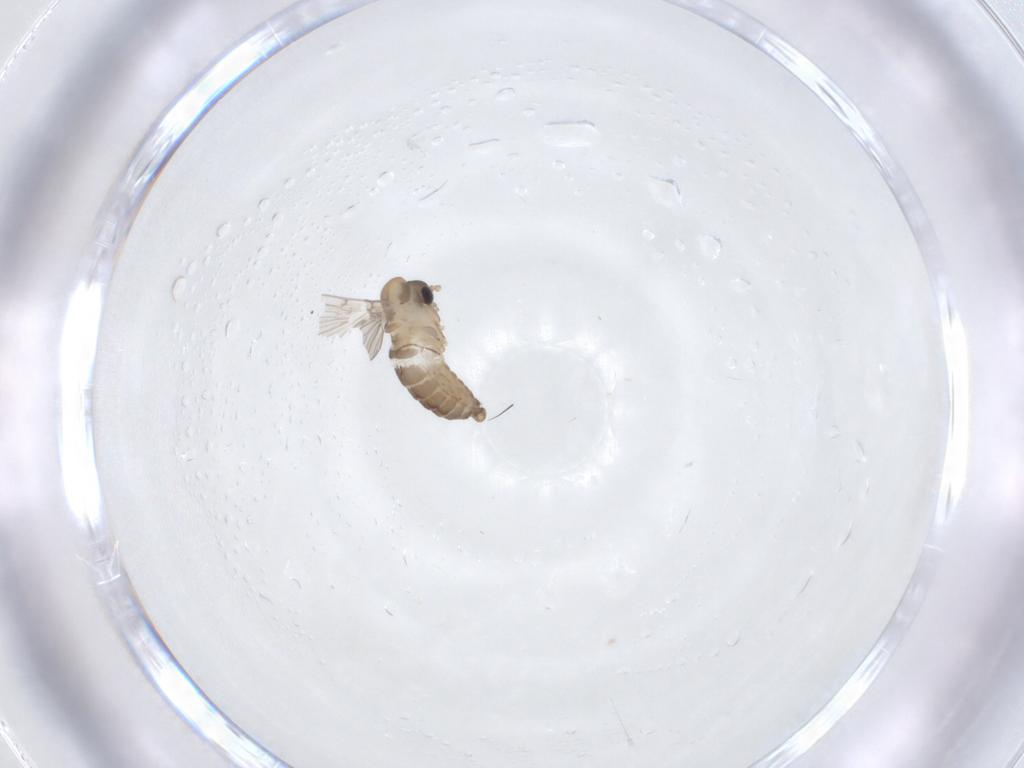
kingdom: Animalia
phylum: Arthropoda
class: Insecta
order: Diptera
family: Psychodidae
